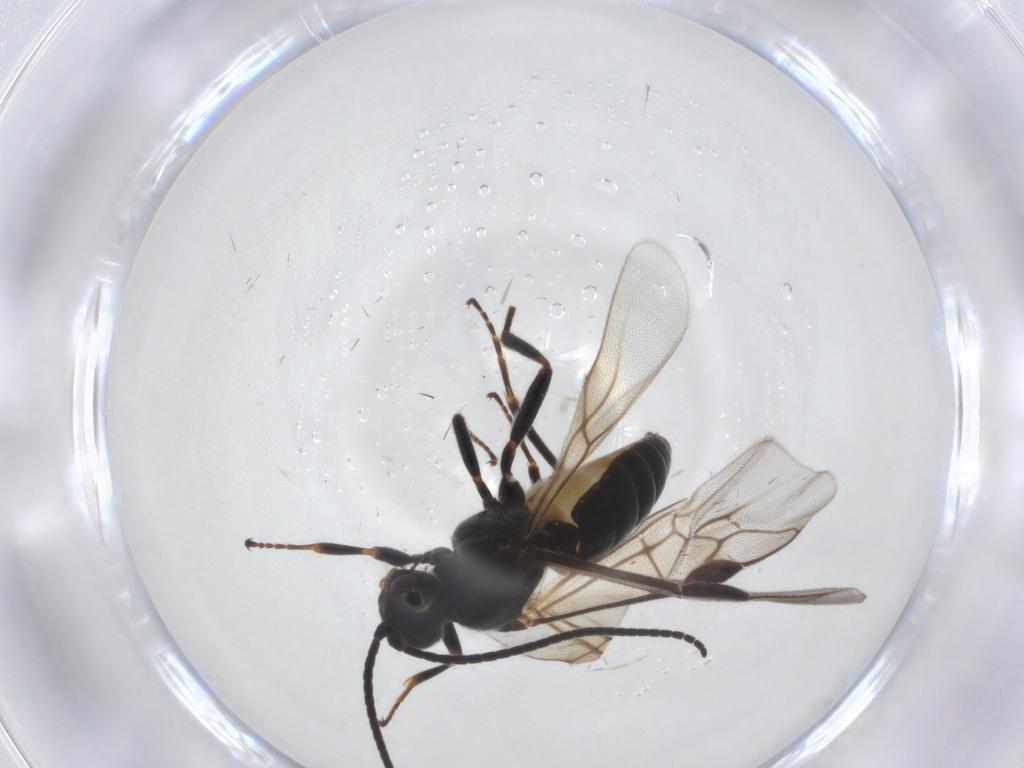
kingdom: Animalia
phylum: Arthropoda
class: Insecta
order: Hymenoptera
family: Braconidae
